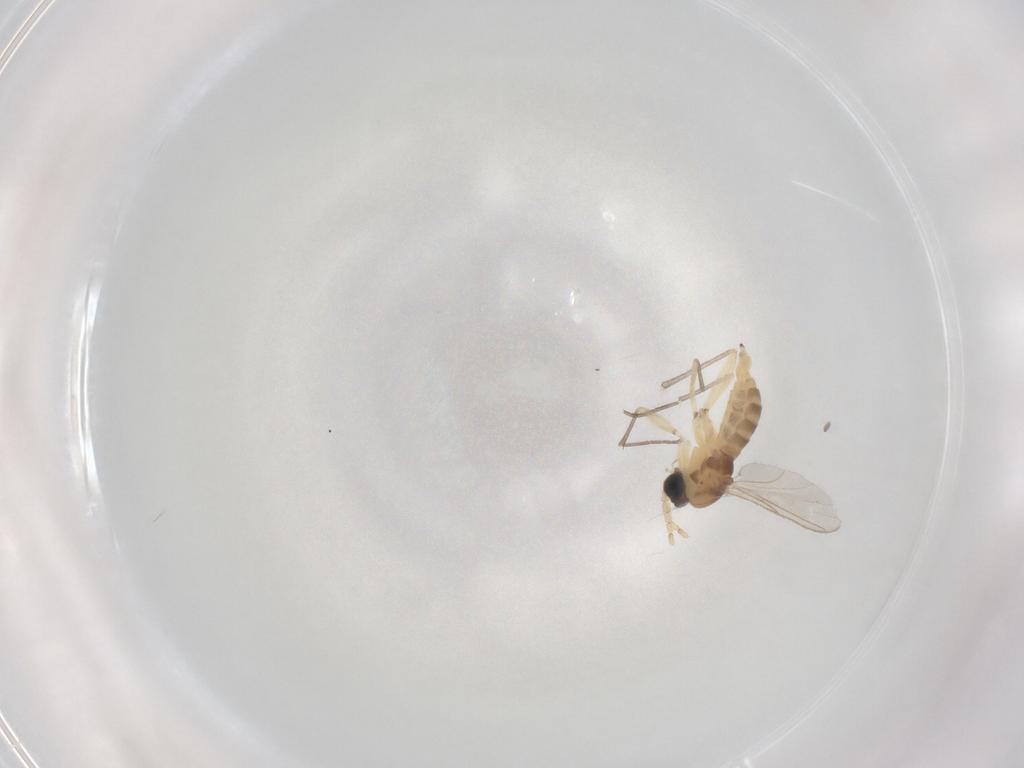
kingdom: Animalia
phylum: Arthropoda
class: Insecta
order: Diptera
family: Sciaridae
